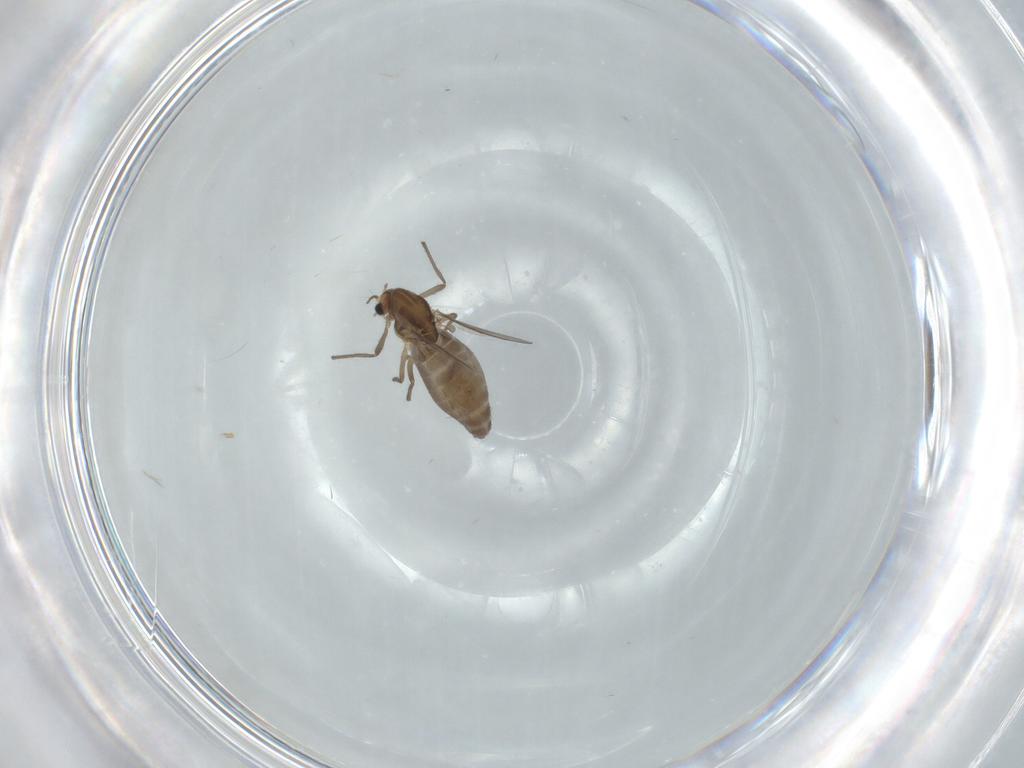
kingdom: Animalia
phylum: Arthropoda
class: Insecta
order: Diptera
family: Chironomidae
